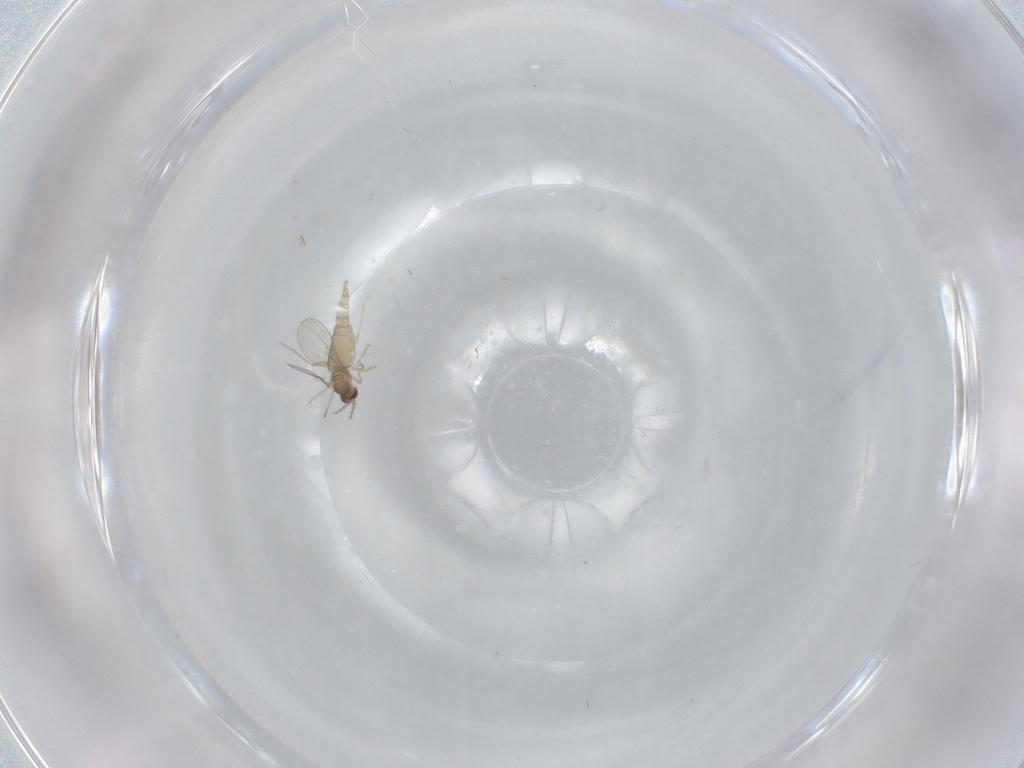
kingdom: Animalia
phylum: Arthropoda
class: Insecta
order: Diptera
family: Cecidomyiidae
